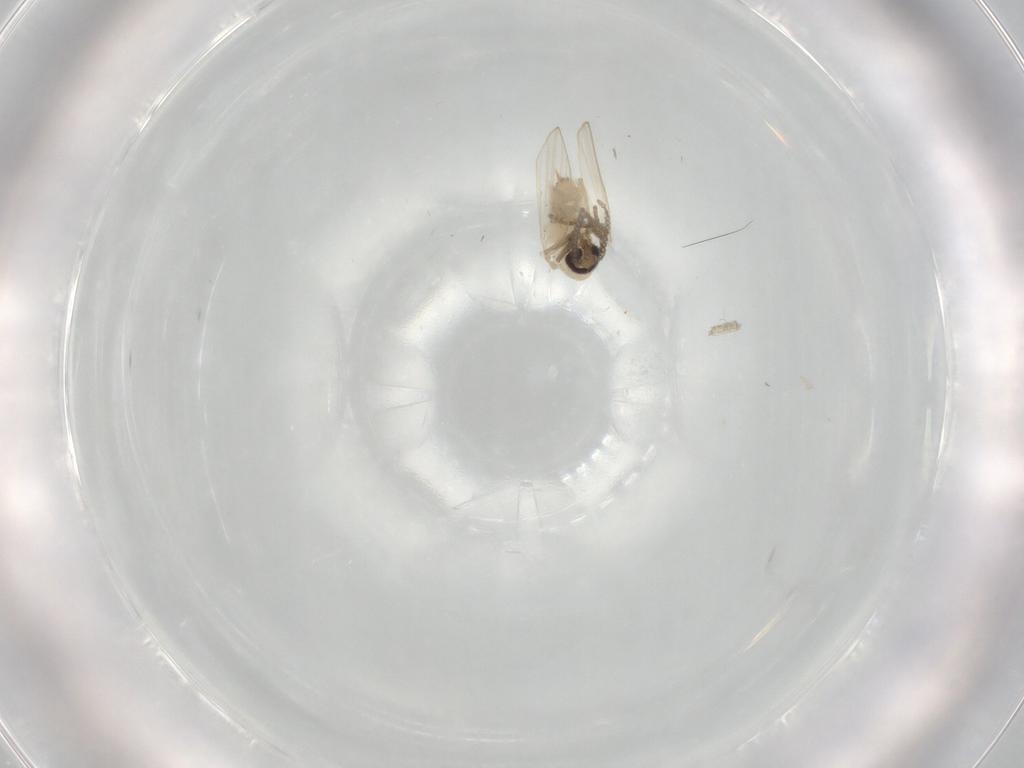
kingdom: Animalia
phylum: Arthropoda
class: Insecta
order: Diptera
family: Psychodidae
